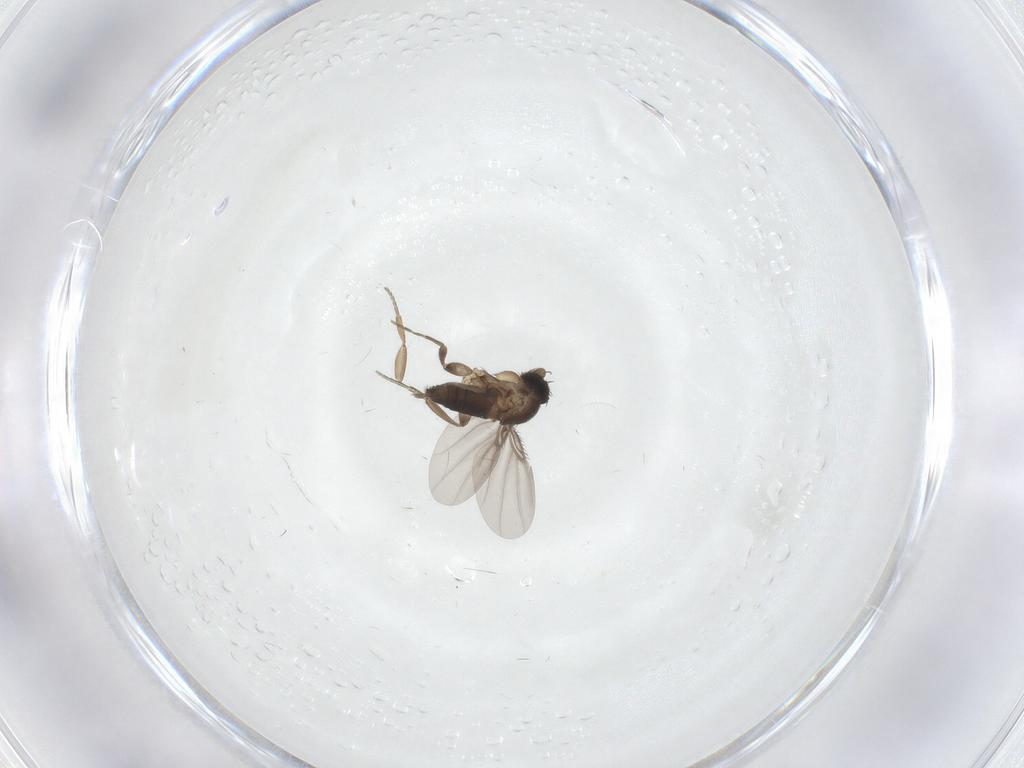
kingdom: Animalia
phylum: Arthropoda
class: Insecta
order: Diptera
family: Phoridae
